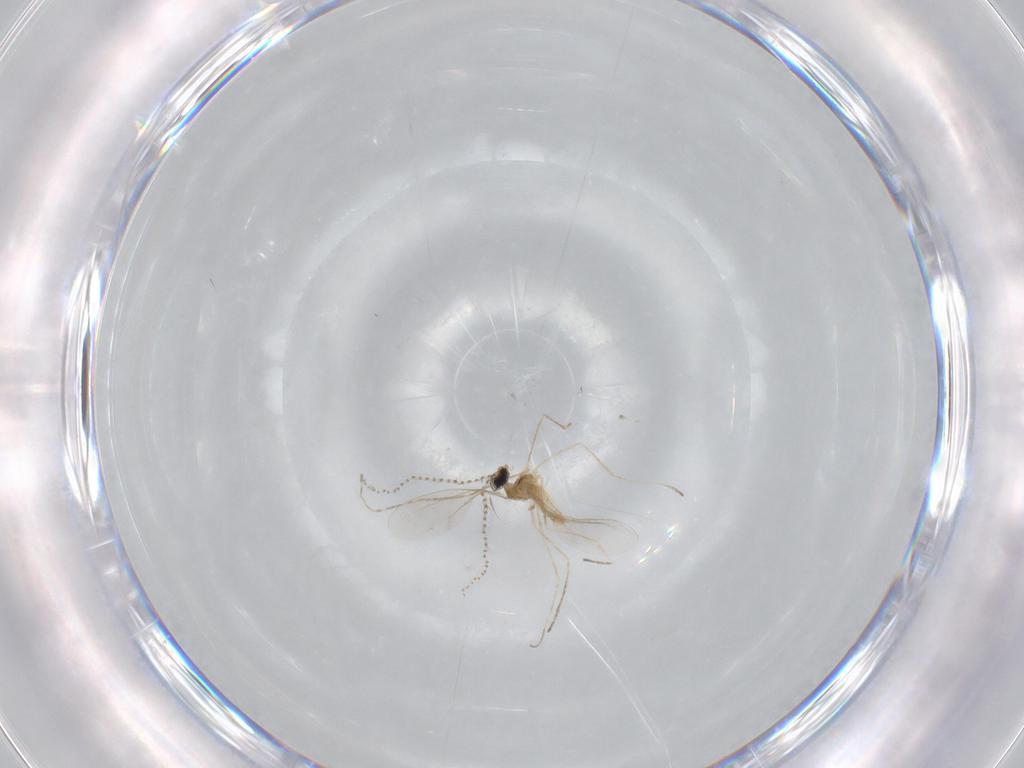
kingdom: Animalia
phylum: Arthropoda
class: Insecta
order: Diptera
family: Cecidomyiidae
